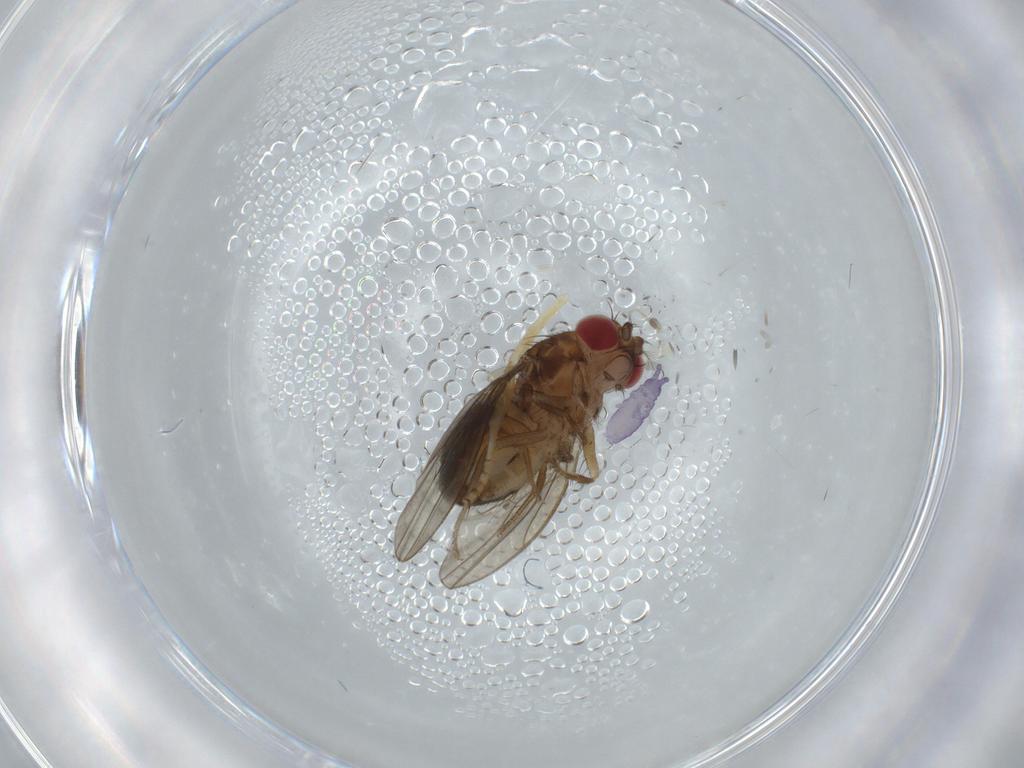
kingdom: Animalia
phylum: Arthropoda
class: Insecta
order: Diptera
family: Drosophilidae
